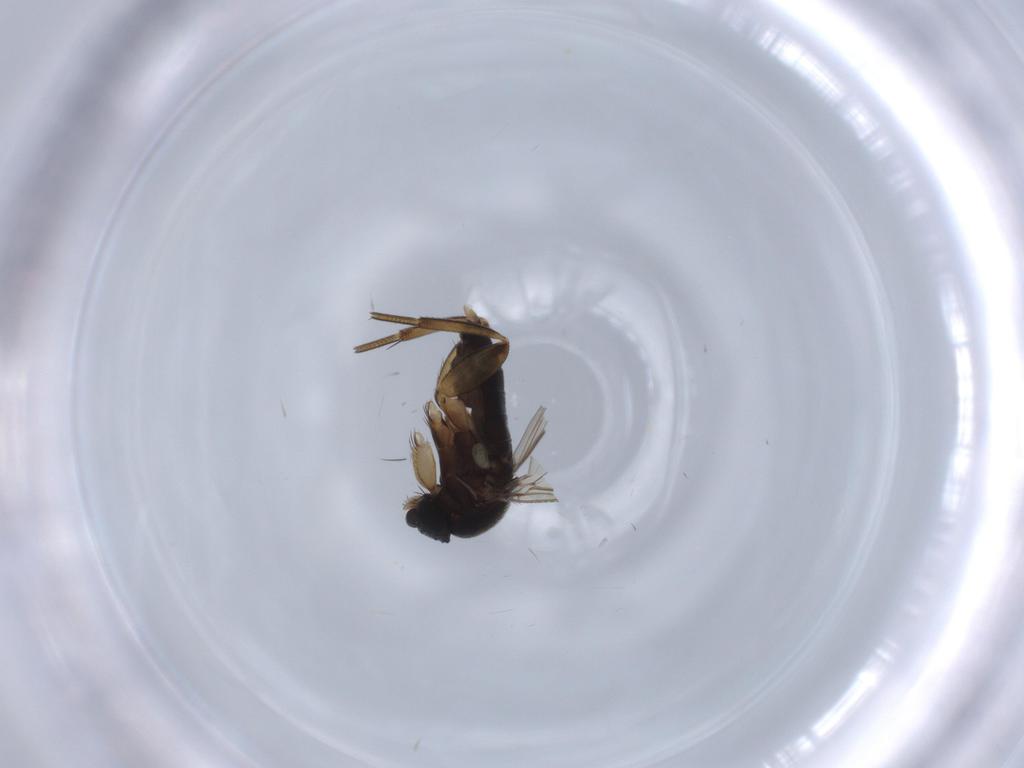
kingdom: Animalia
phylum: Arthropoda
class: Insecta
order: Diptera
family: Phoridae
